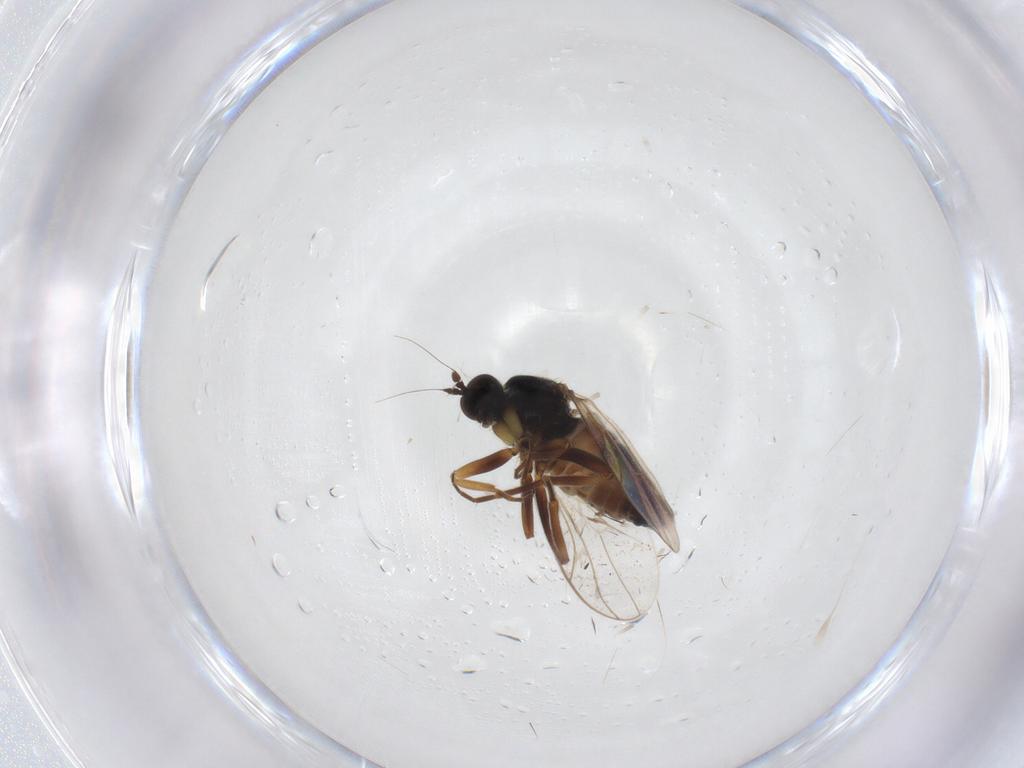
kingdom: Animalia
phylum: Arthropoda
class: Insecta
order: Diptera
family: Hybotidae
